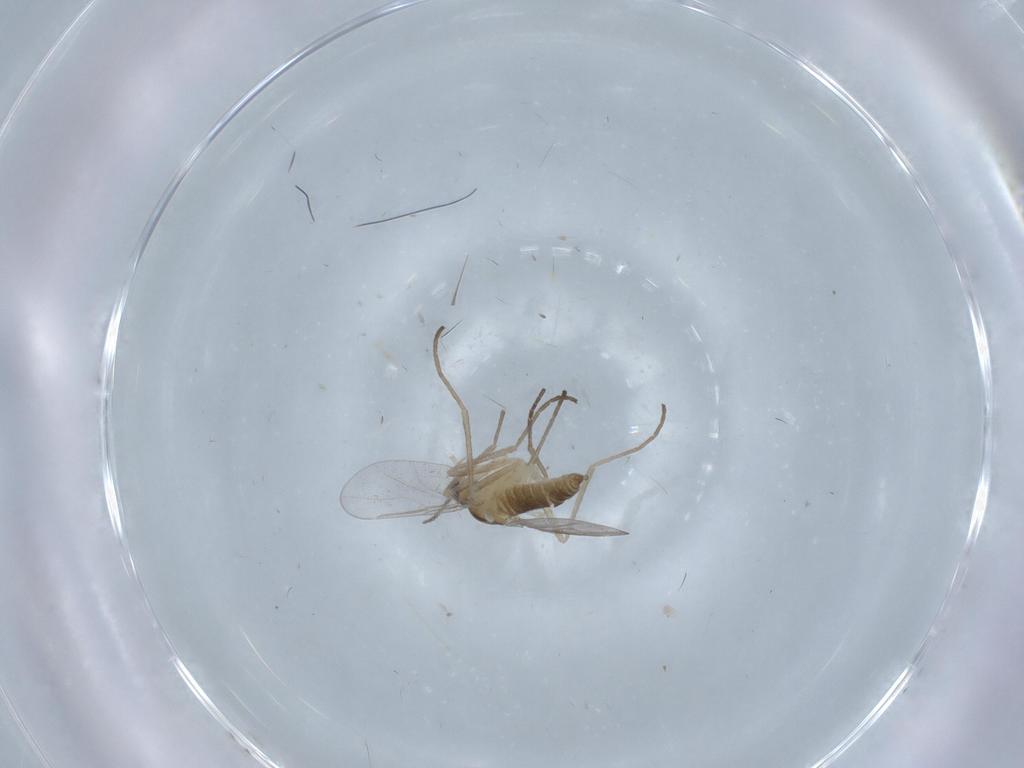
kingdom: Animalia
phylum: Arthropoda
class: Insecta
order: Diptera
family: Cecidomyiidae
